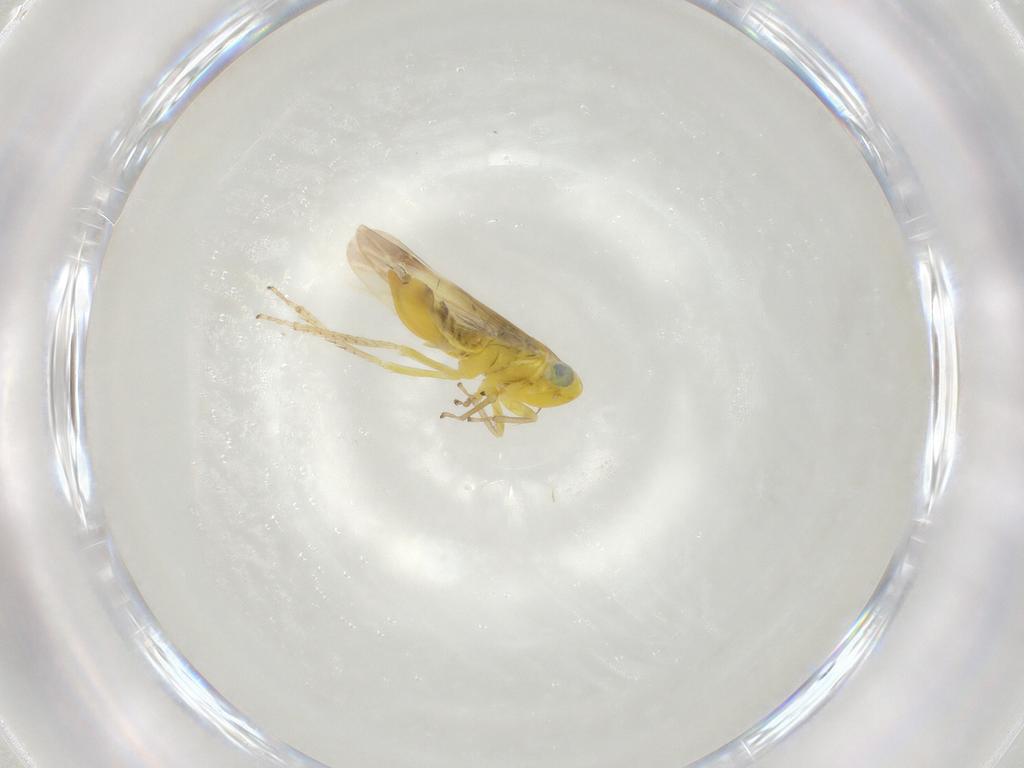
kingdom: Animalia
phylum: Arthropoda
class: Insecta
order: Hemiptera
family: Cicadellidae
